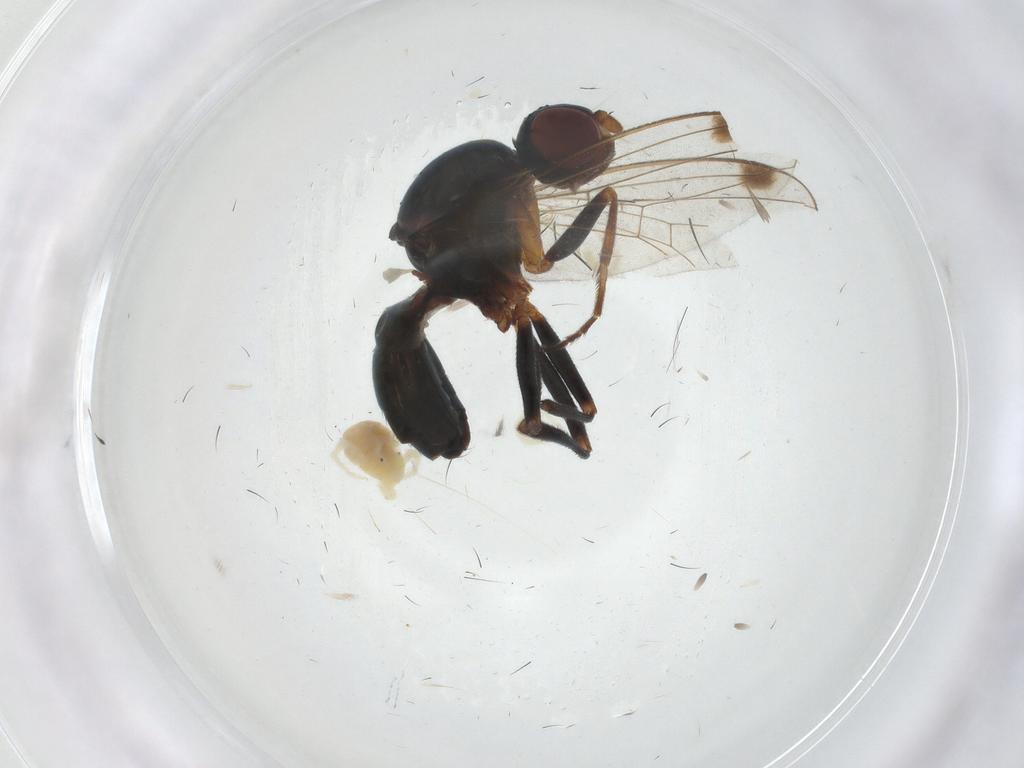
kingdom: Animalia
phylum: Arthropoda
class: Insecta
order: Diptera
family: Sepsidae
